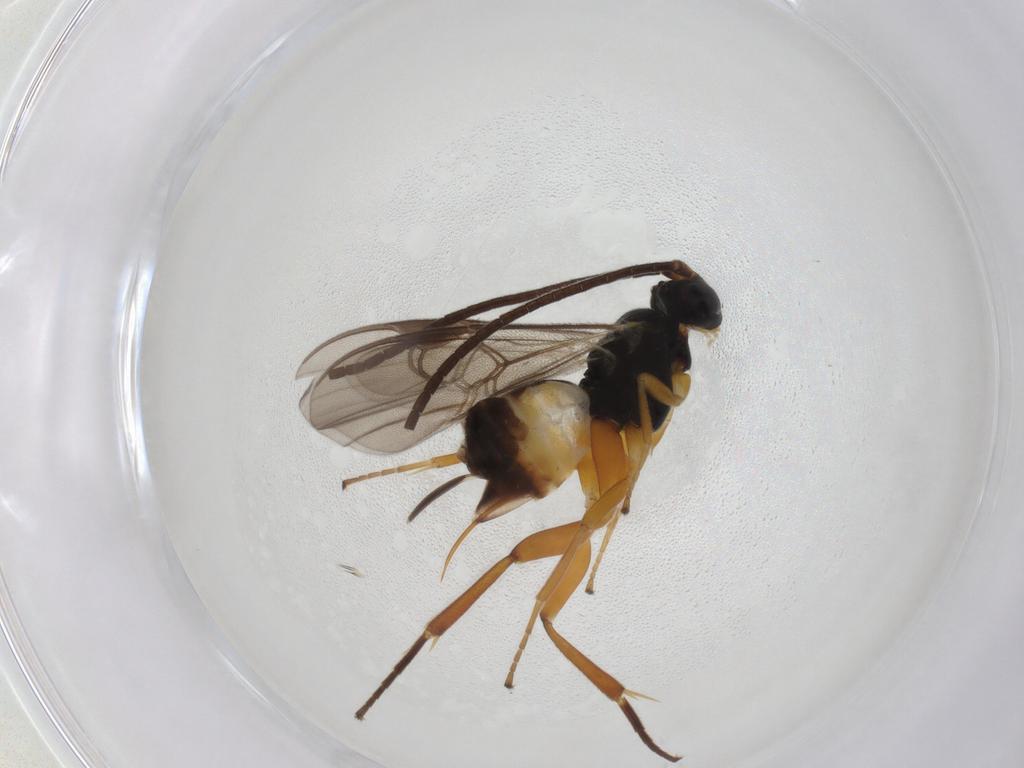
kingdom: Animalia
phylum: Arthropoda
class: Insecta
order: Hymenoptera
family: Braconidae
